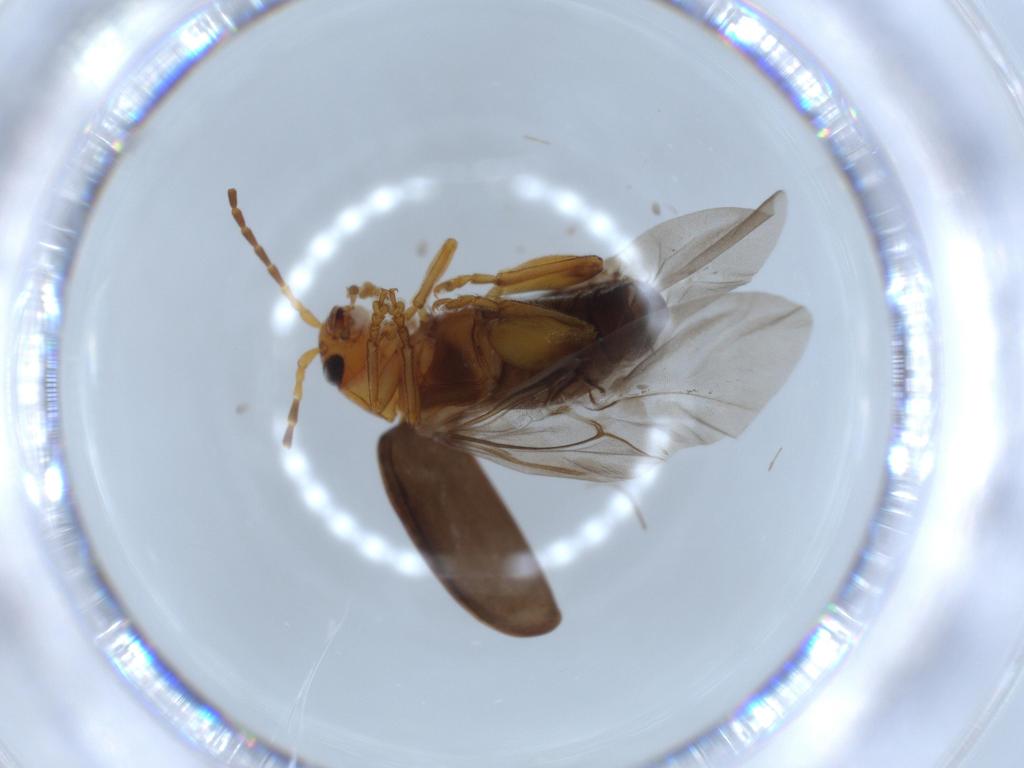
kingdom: Animalia
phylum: Arthropoda
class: Insecta
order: Coleoptera
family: Chrysomelidae
